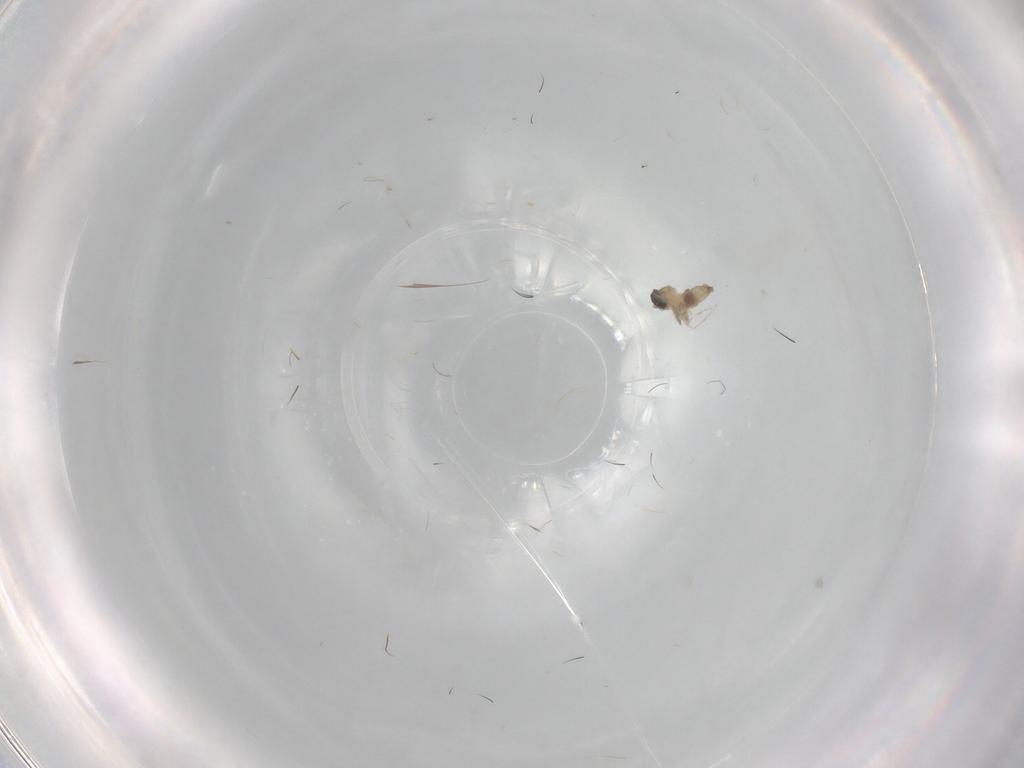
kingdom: Animalia
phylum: Arthropoda
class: Insecta
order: Diptera
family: Cecidomyiidae
